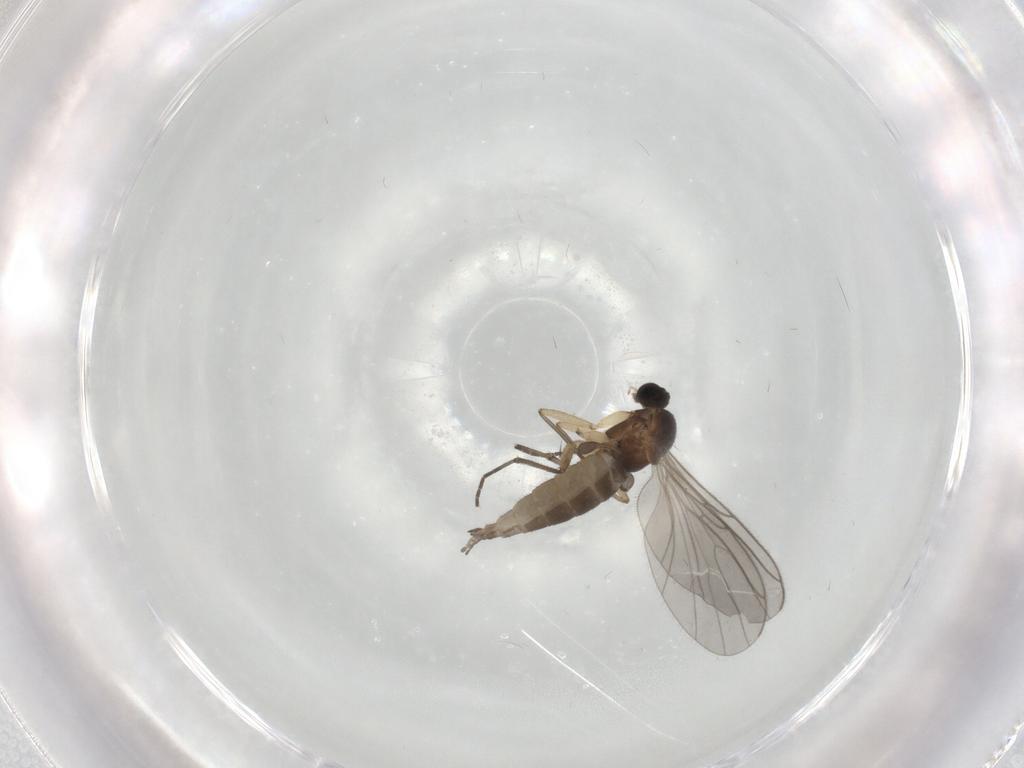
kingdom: Animalia
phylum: Arthropoda
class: Insecta
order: Diptera
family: Sciaridae
